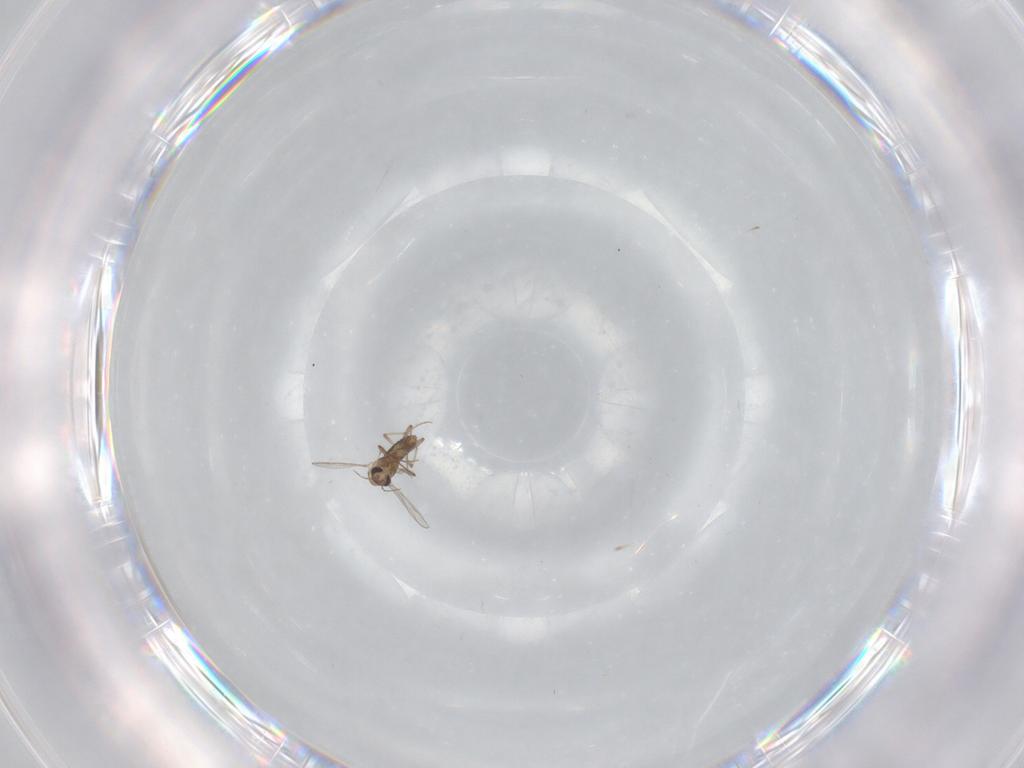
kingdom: Animalia
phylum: Arthropoda
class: Insecta
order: Diptera
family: Chironomidae
